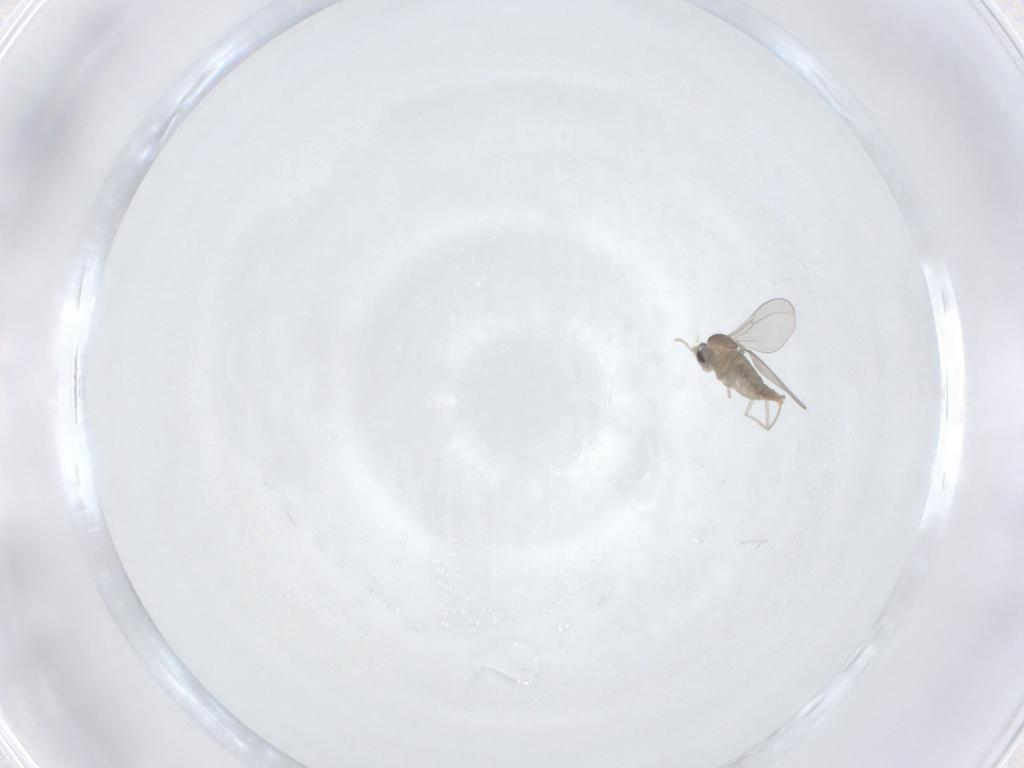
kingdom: Animalia
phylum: Arthropoda
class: Insecta
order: Diptera
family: Cecidomyiidae
